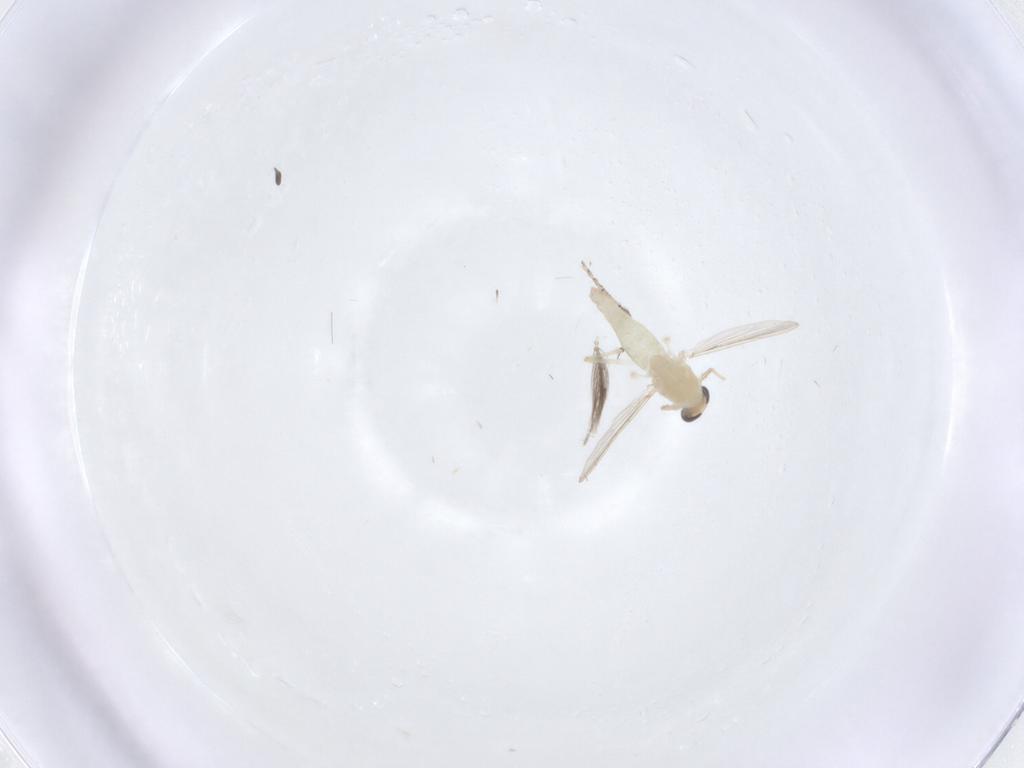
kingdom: Animalia
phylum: Arthropoda
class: Insecta
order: Diptera
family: Chironomidae
